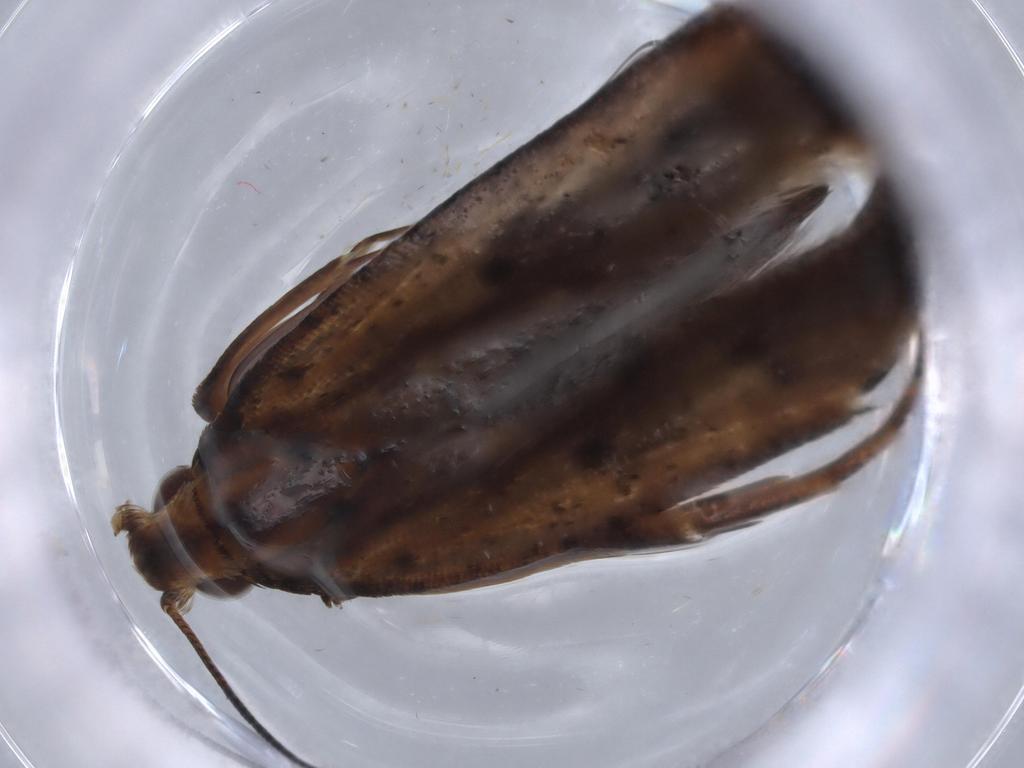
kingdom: Animalia
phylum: Arthropoda
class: Insecta
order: Lepidoptera
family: Gelechiidae
